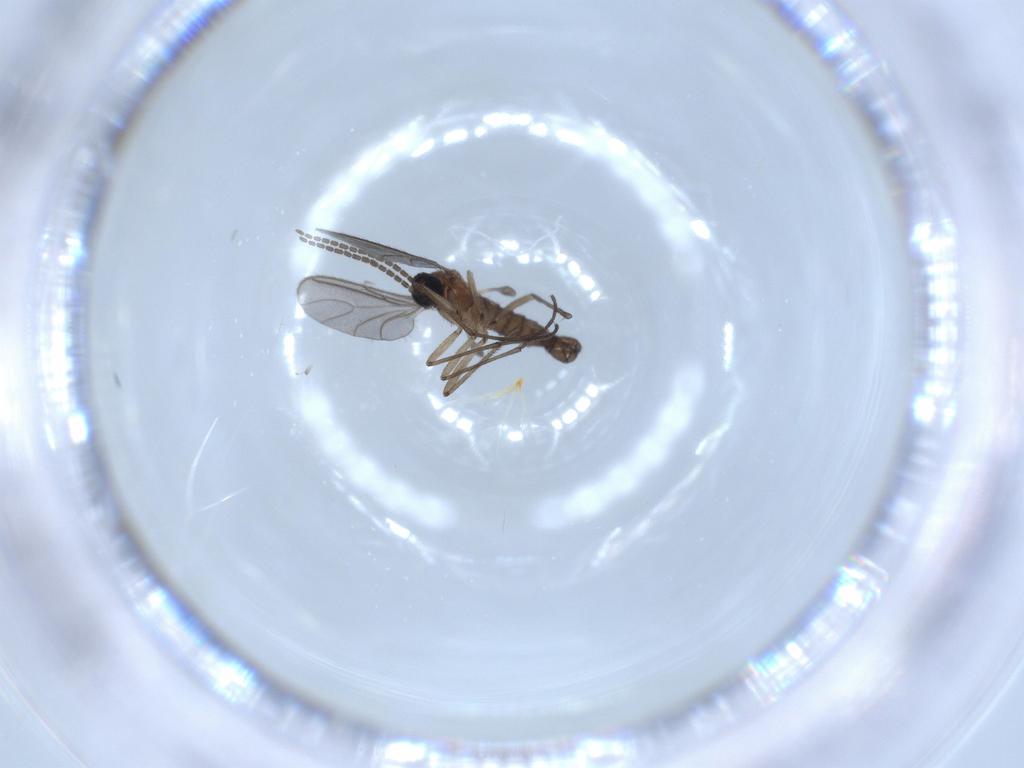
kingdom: Animalia
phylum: Arthropoda
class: Insecta
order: Diptera
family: Sciaridae
